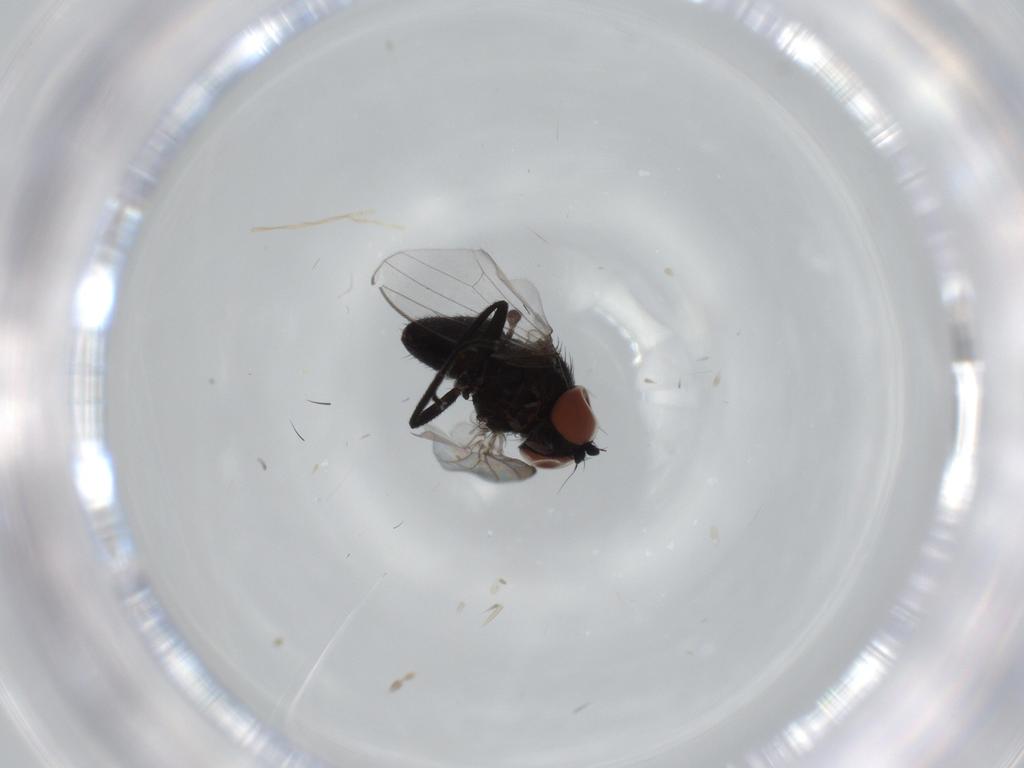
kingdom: Animalia
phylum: Arthropoda
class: Insecta
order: Diptera
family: Milichiidae
